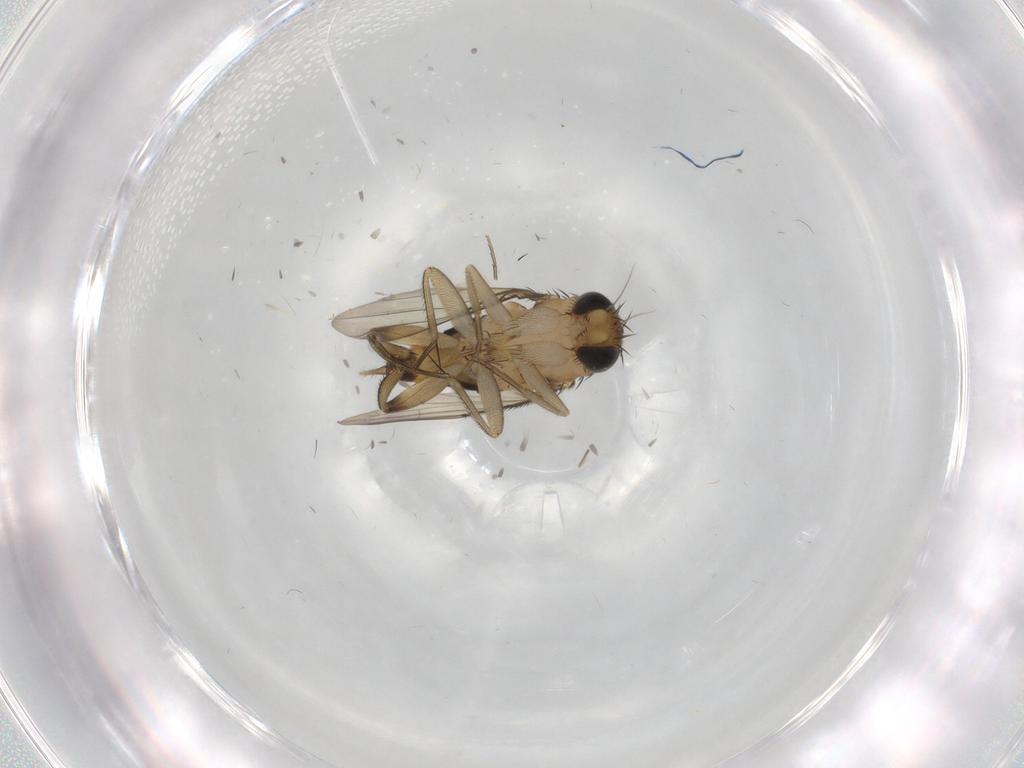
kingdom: Animalia
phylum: Arthropoda
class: Insecta
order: Diptera
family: Phoridae
